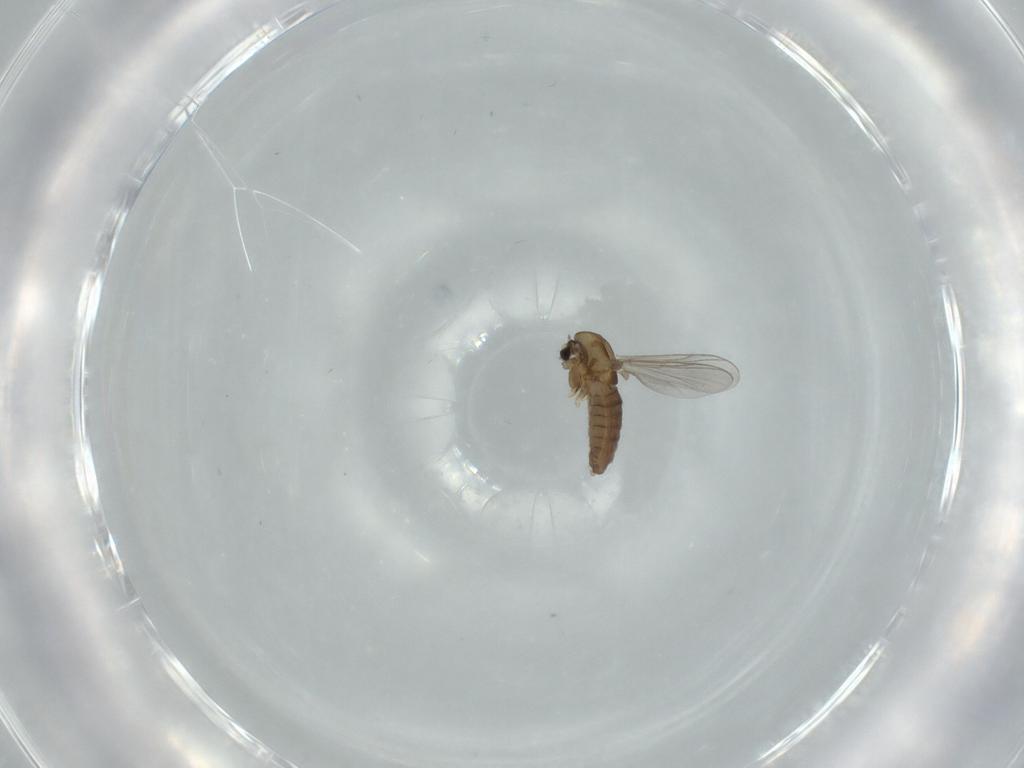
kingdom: Animalia
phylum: Arthropoda
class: Insecta
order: Diptera
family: Chironomidae
